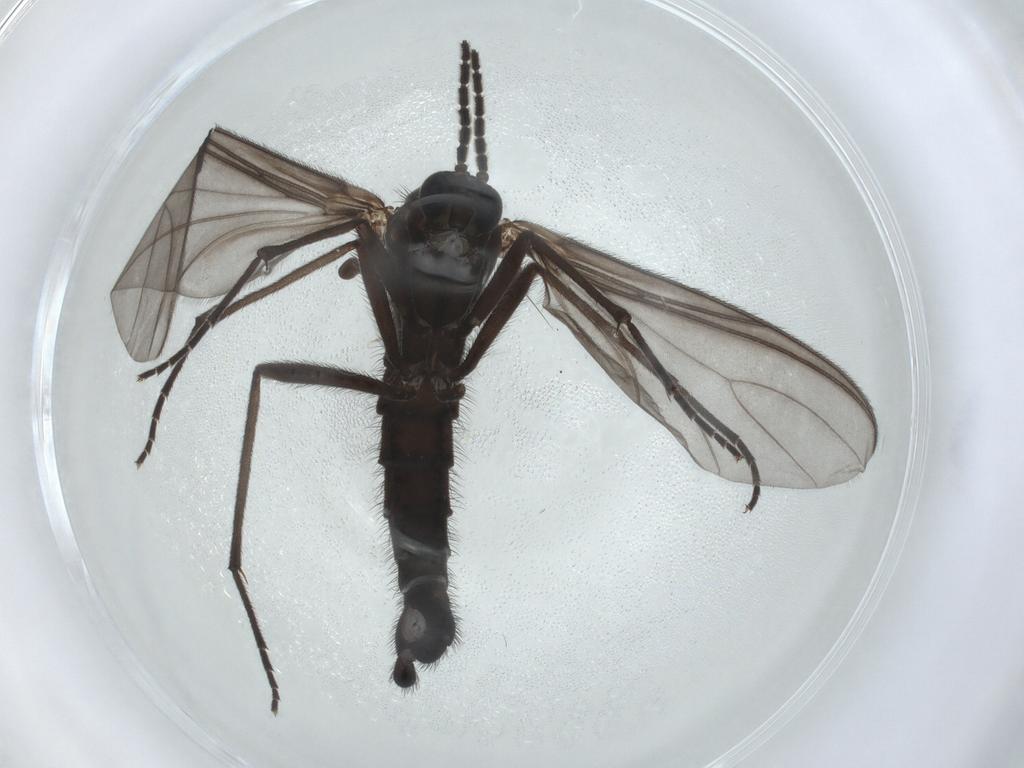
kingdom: Animalia
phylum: Arthropoda
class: Insecta
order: Diptera
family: Sciaridae
